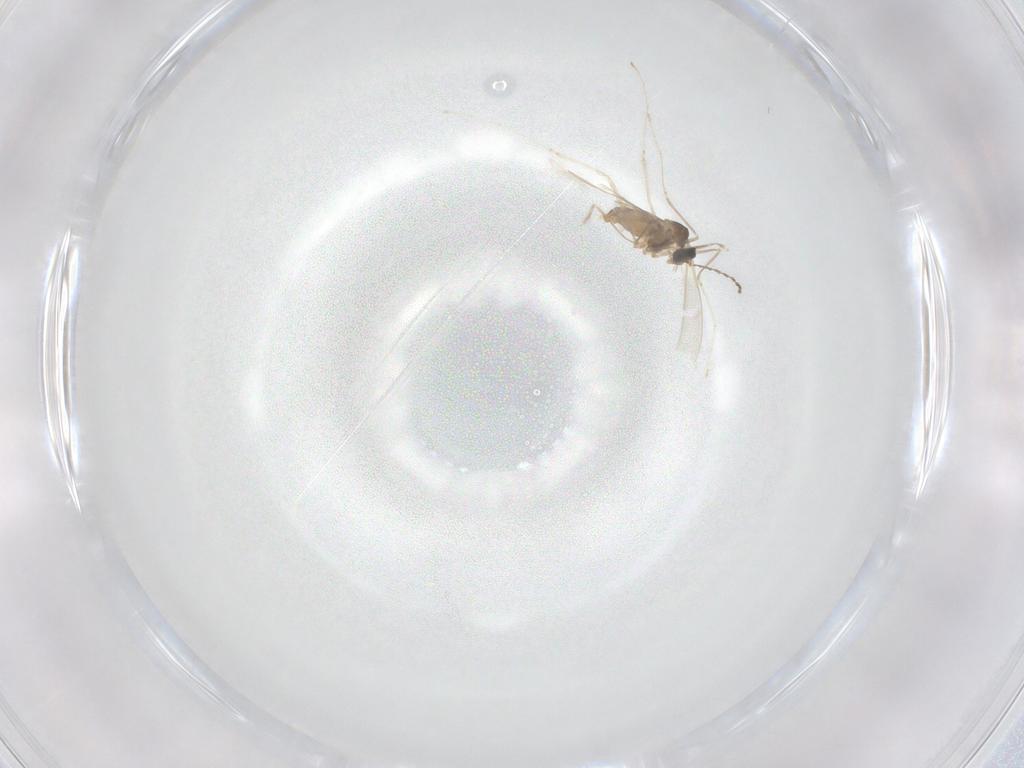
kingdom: Animalia
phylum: Arthropoda
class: Insecta
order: Diptera
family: Cecidomyiidae
